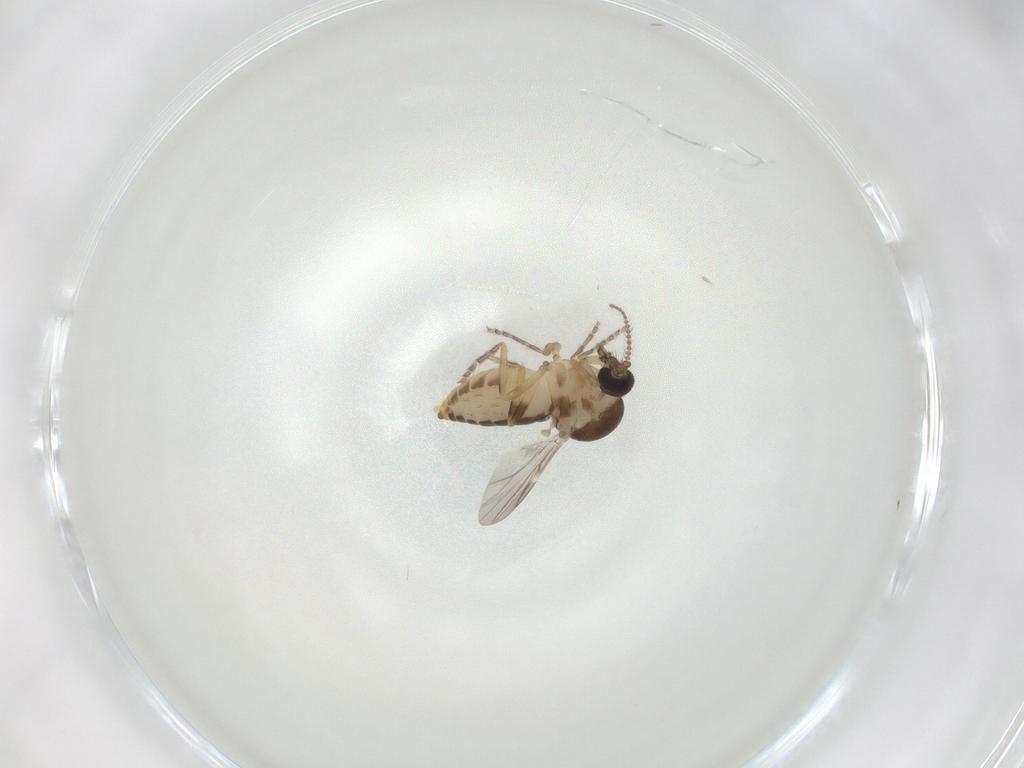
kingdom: Animalia
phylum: Arthropoda
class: Insecta
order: Diptera
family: Ceratopogonidae
